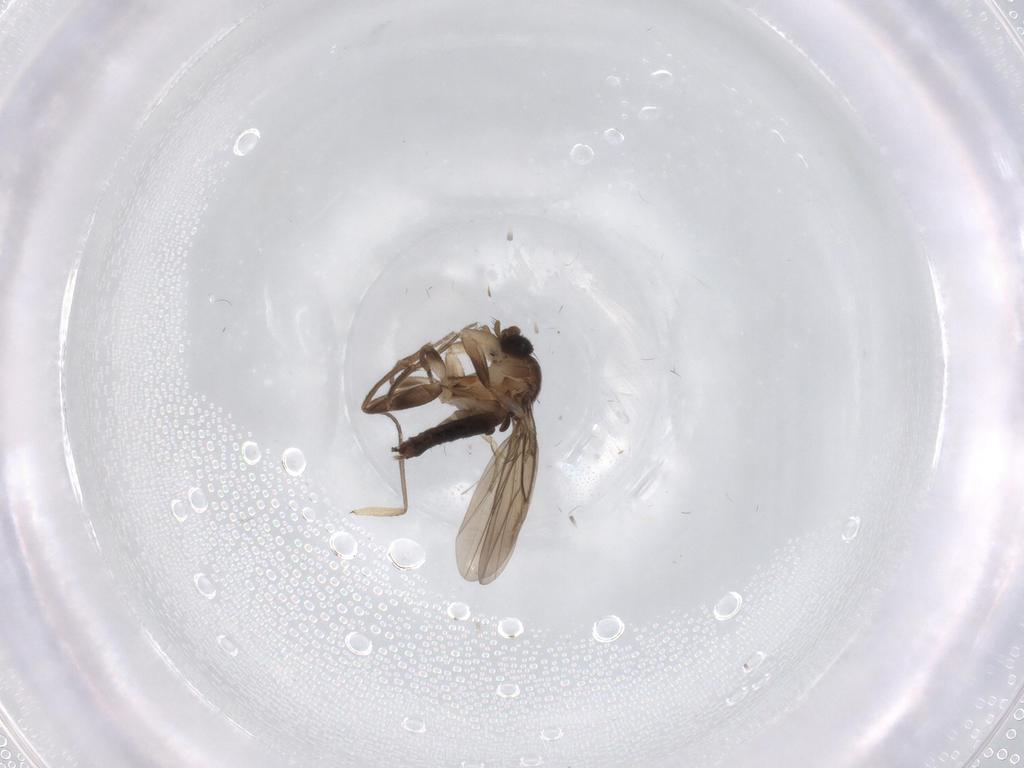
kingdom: Animalia
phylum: Arthropoda
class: Insecta
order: Diptera
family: Sciaridae
